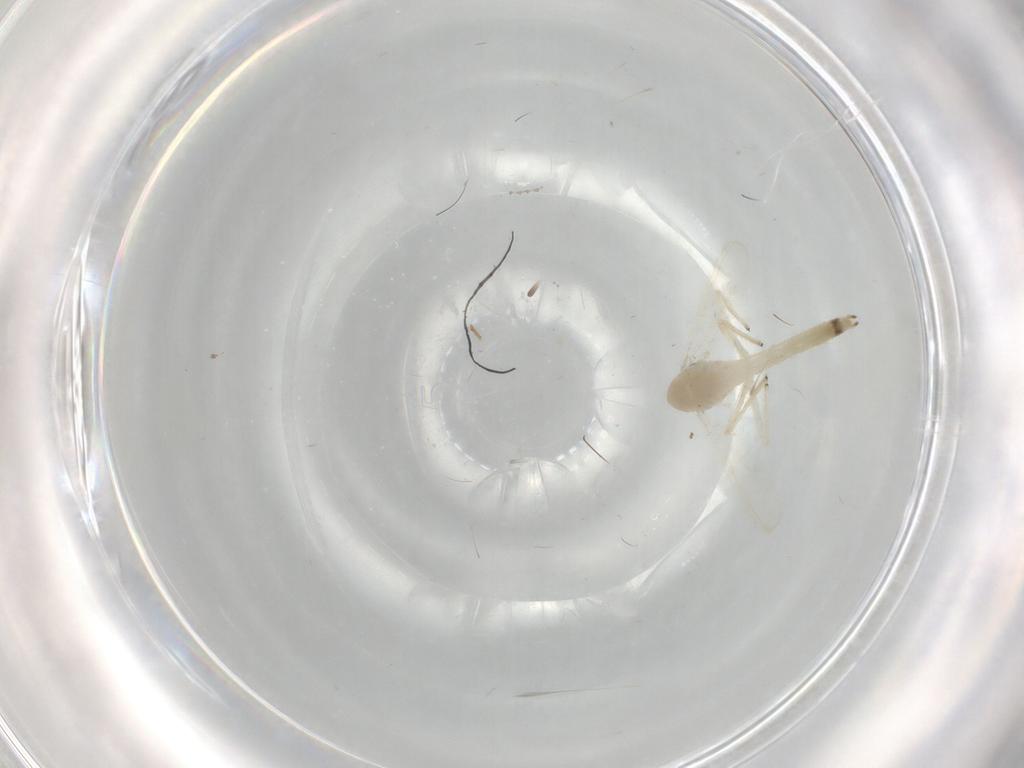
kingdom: Animalia
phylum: Arthropoda
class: Insecta
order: Diptera
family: Chironomidae
